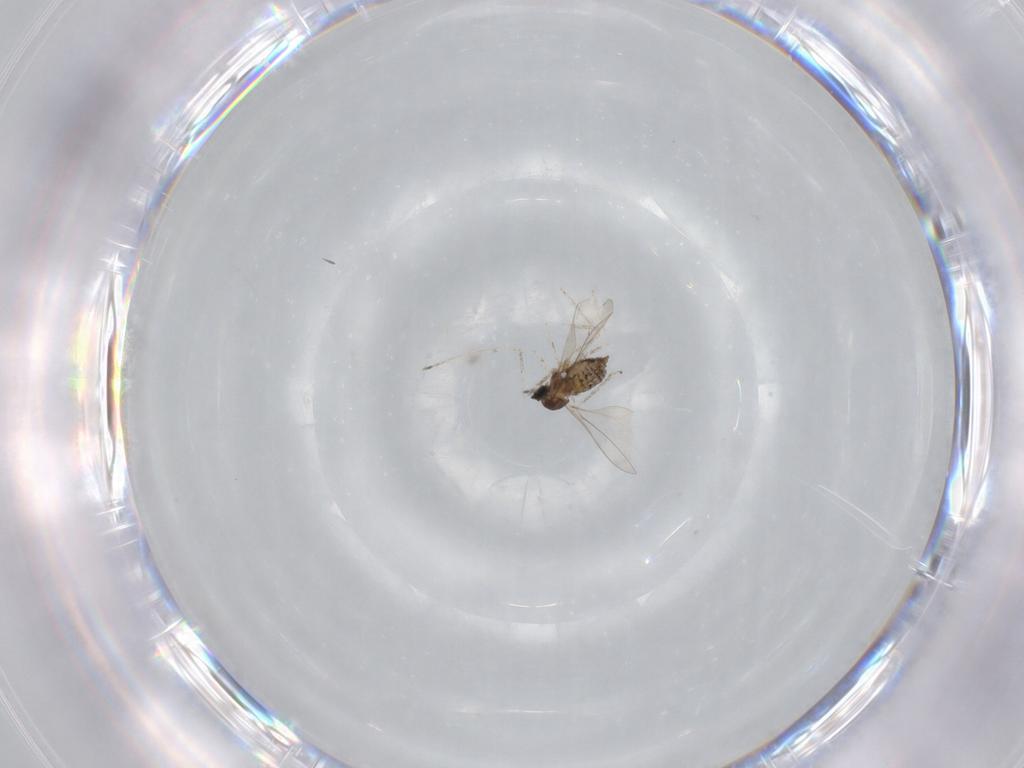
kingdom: Animalia
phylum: Arthropoda
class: Insecta
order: Diptera
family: Cecidomyiidae
